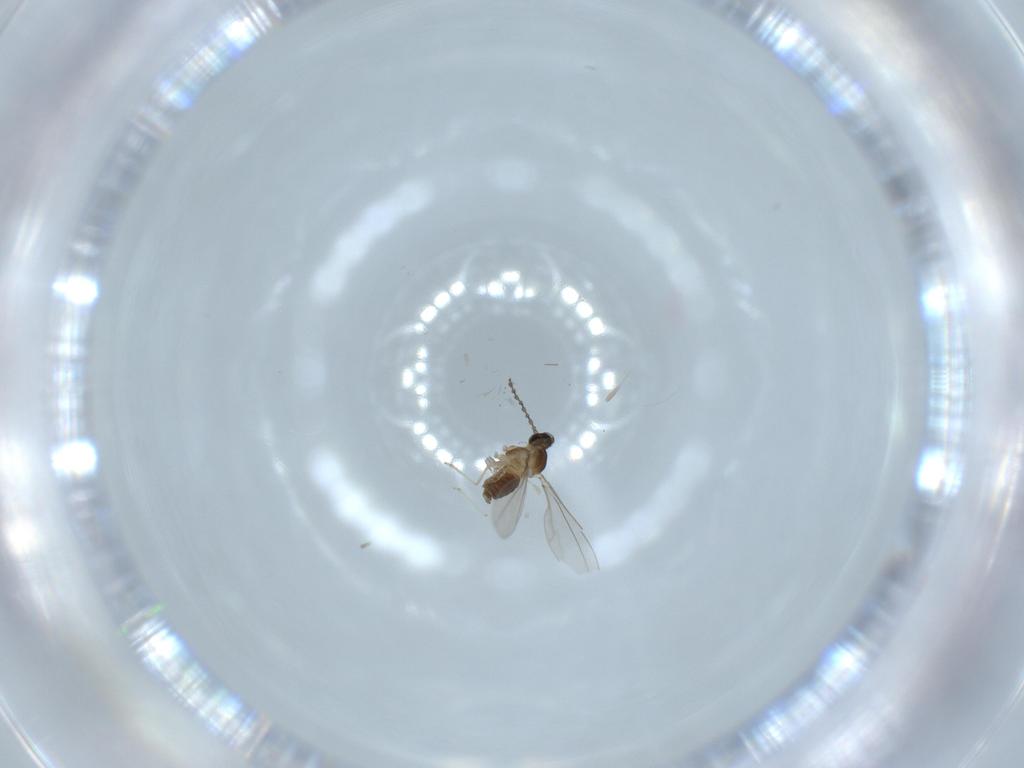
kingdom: Animalia
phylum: Arthropoda
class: Insecta
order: Diptera
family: Cecidomyiidae
